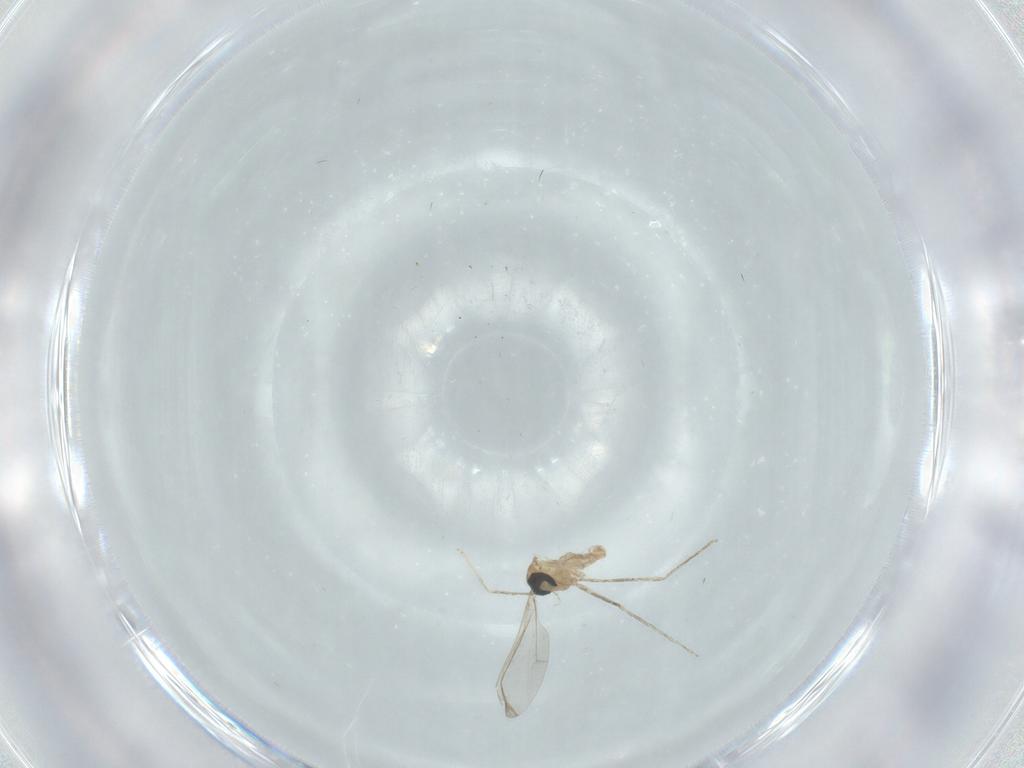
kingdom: Animalia
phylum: Arthropoda
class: Insecta
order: Diptera
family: Cecidomyiidae
